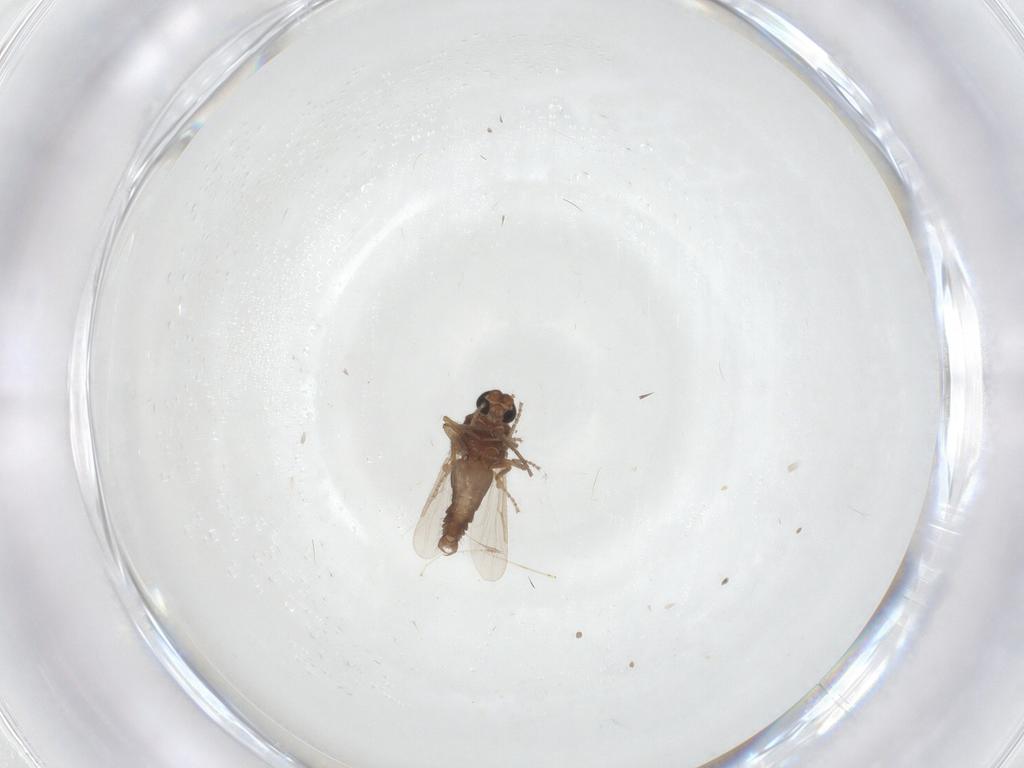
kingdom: Animalia
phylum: Arthropoda
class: Insecta
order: Diptera
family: Ceratopogonidae
